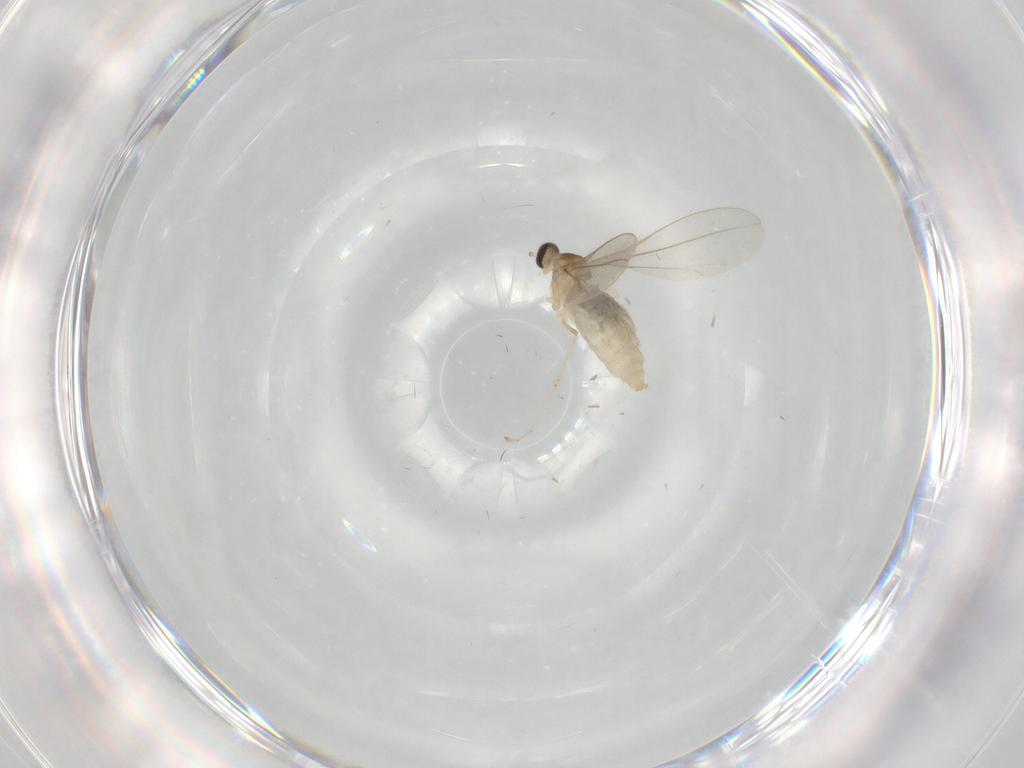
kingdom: Animalia
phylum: Arthropoda
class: Insecta
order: Diptera
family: Cecidomyiidae
